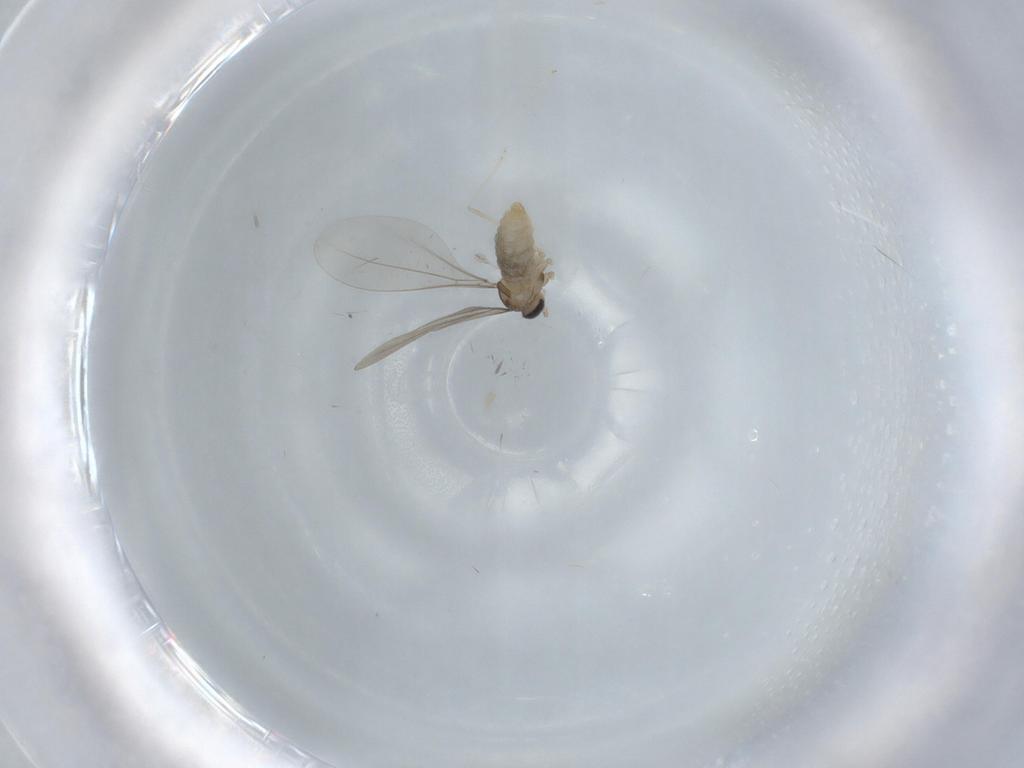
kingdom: Animalia
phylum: Arthropoda
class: Insecta
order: Diptera
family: Cecidomyiidae
